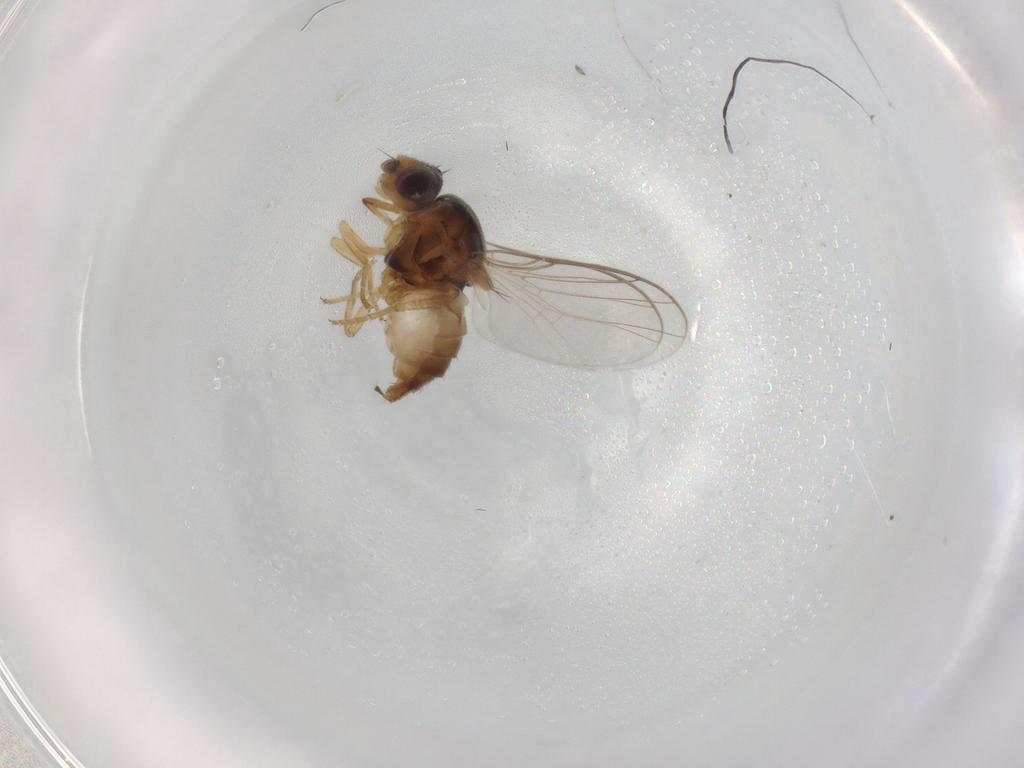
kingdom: Animalia
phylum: Arthropoda
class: Insecta
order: Diptera
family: Chloropidae
